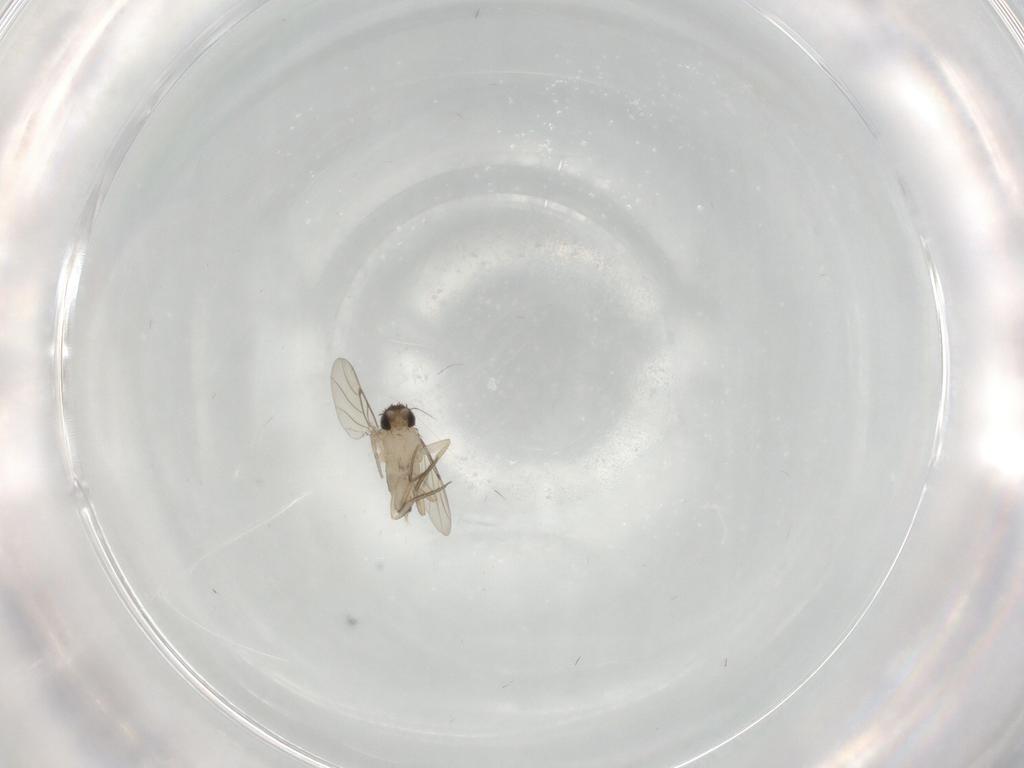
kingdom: Animalia
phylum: Arthropoda
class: Insecta
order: Diptera
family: Phoridae
